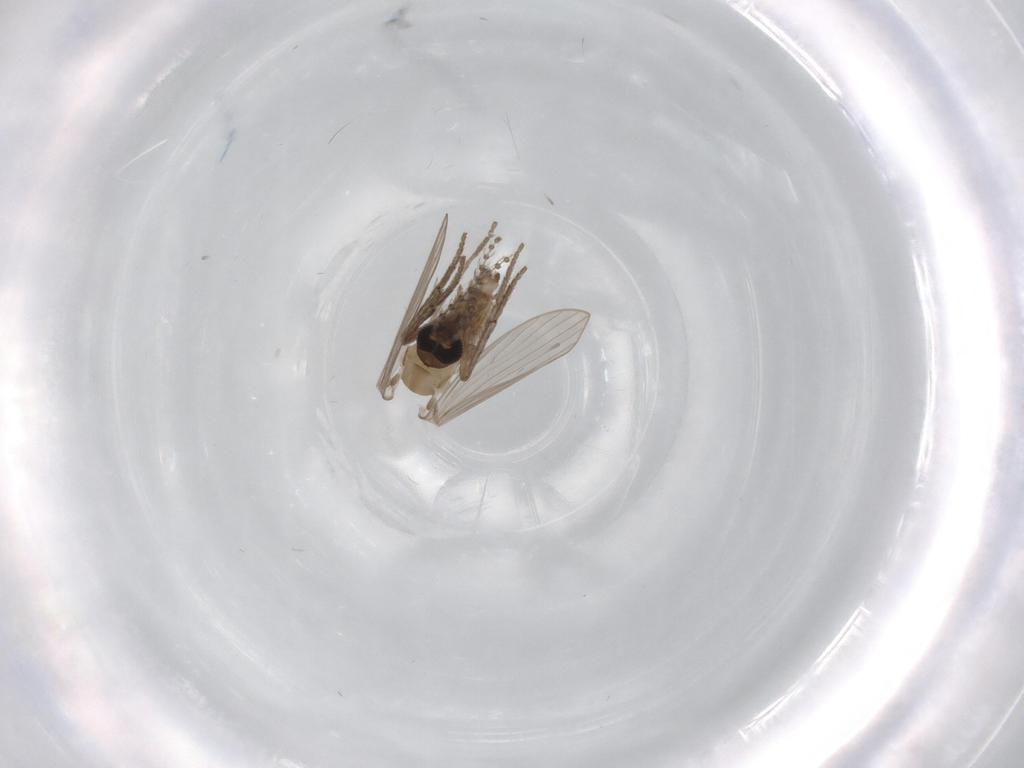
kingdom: Animalia
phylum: Arthropoda
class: Insecta
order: Diptera
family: Psychodidae
